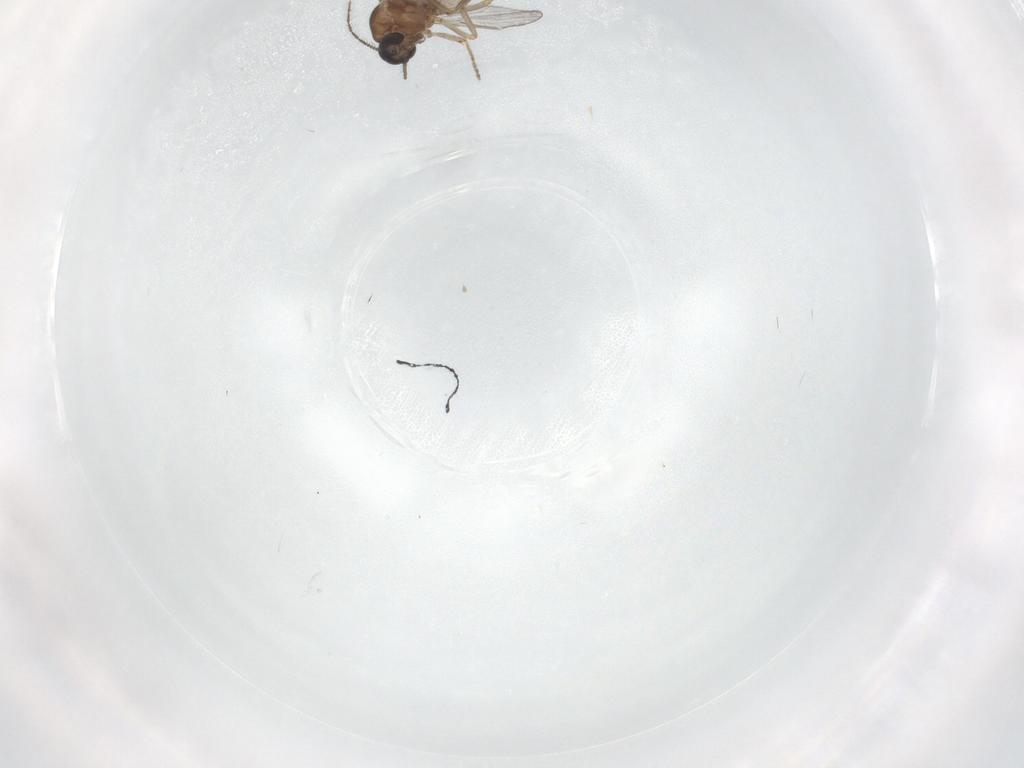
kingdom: Animalia
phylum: Arthropoda
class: Insecta
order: Diptera
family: Ceratopogonidae
